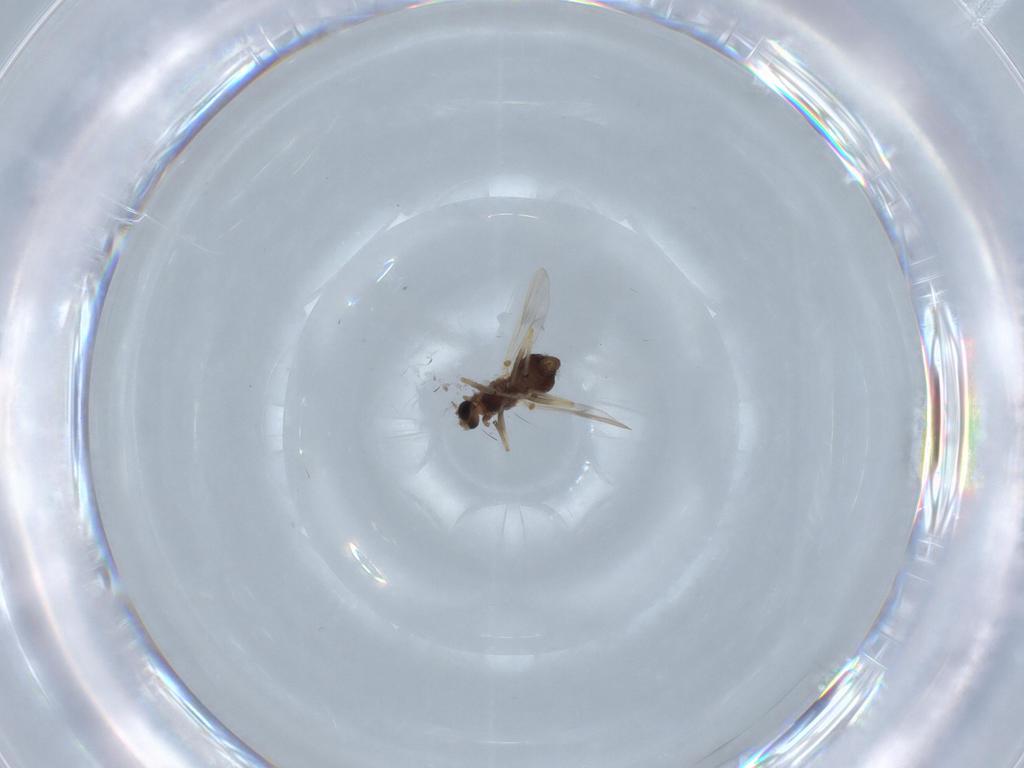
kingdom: Animalia
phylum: Arthropoda
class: Insecta
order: Diptera
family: Chironomidae
